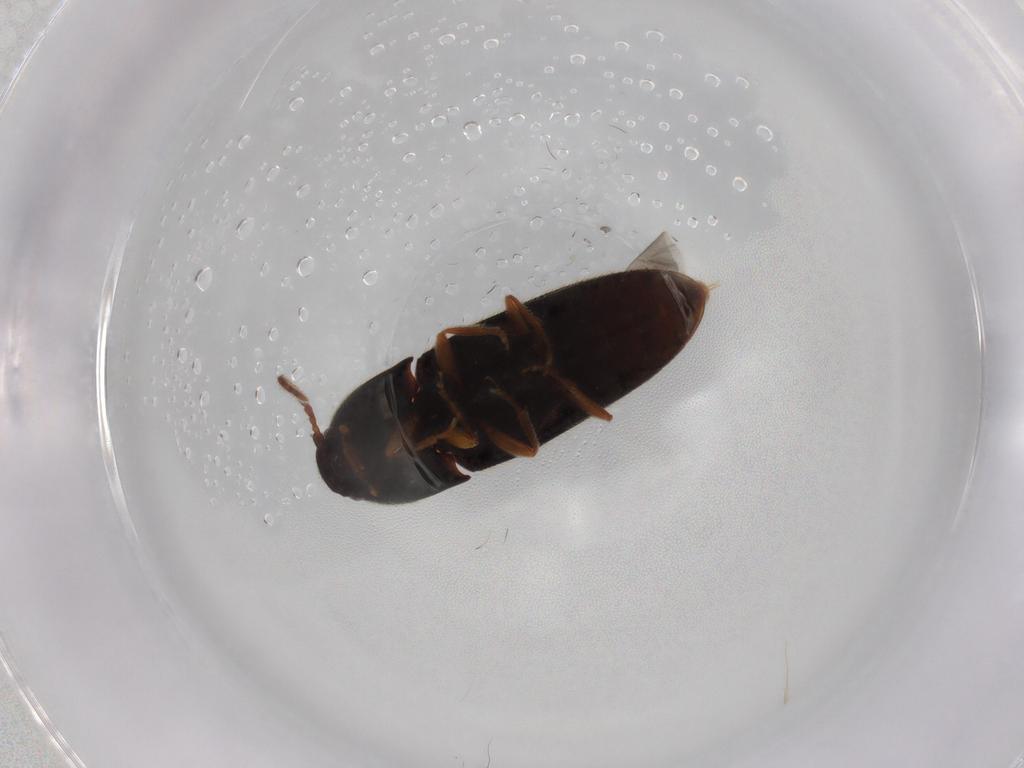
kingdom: Animalia
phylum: Arthropoda
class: Insecta
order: Coleoptera
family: Elateridae
